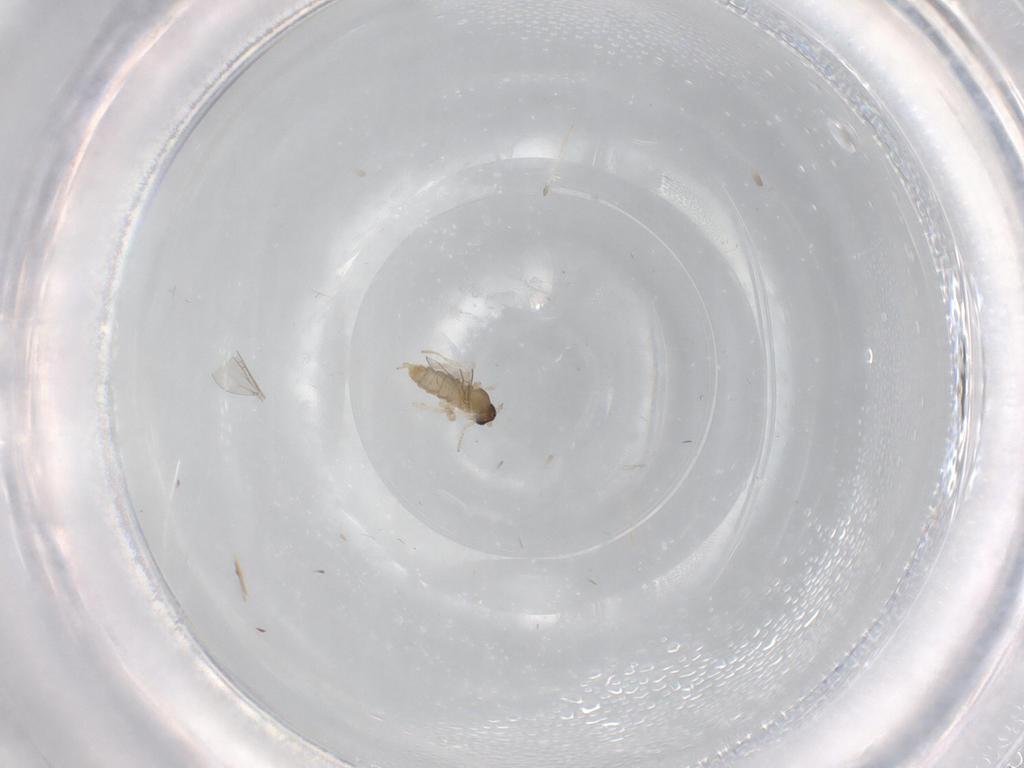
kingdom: Animalia
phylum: Arthropoda
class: Insecta
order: Diptera
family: Cecidomyiidae
